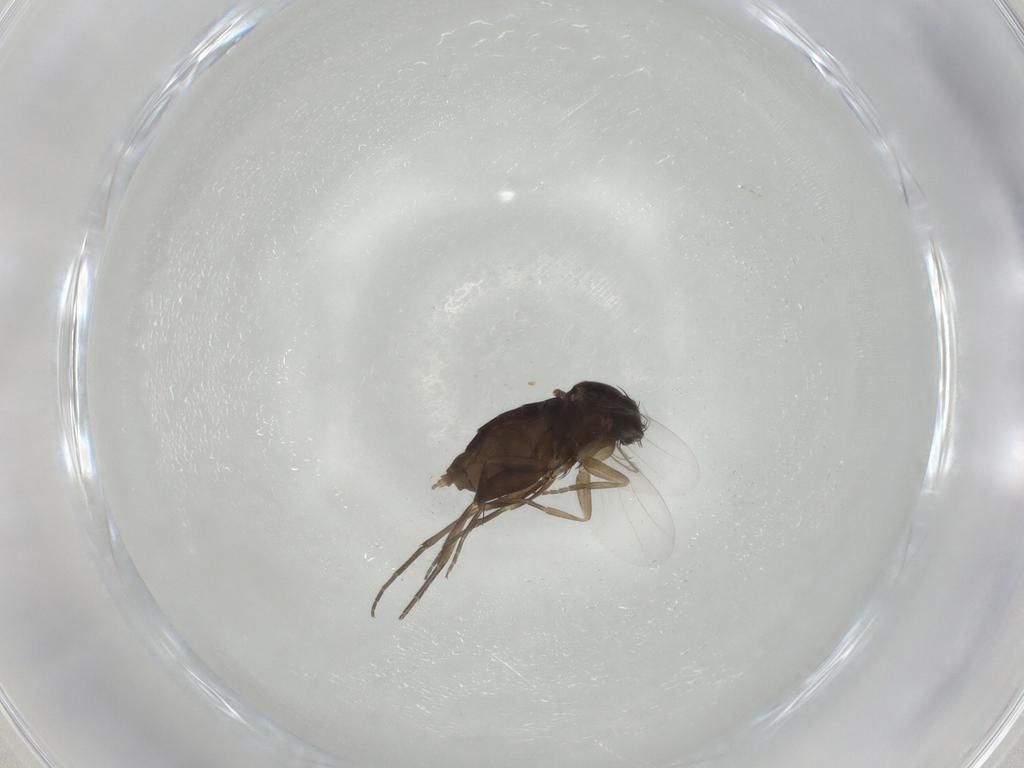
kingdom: Animalia
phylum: Arthropoda
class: Insecta
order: Diptera
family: Phoridae
